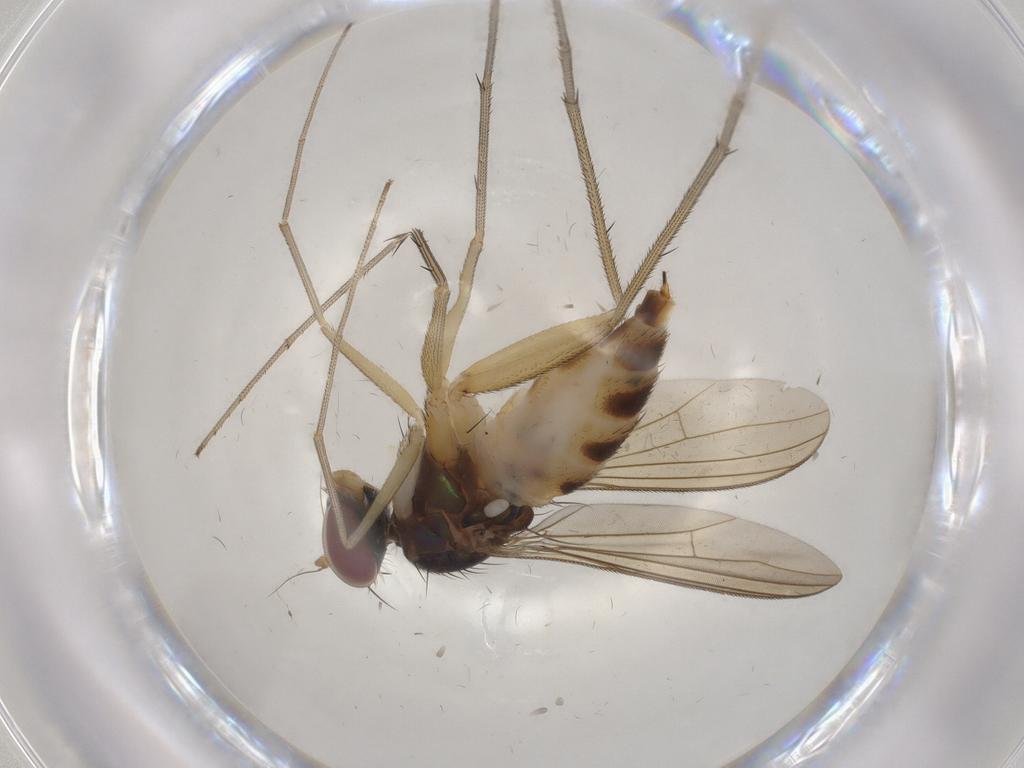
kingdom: Animalia
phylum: Arthropoda
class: Insecta
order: Diptera
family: Dolichopodidae
